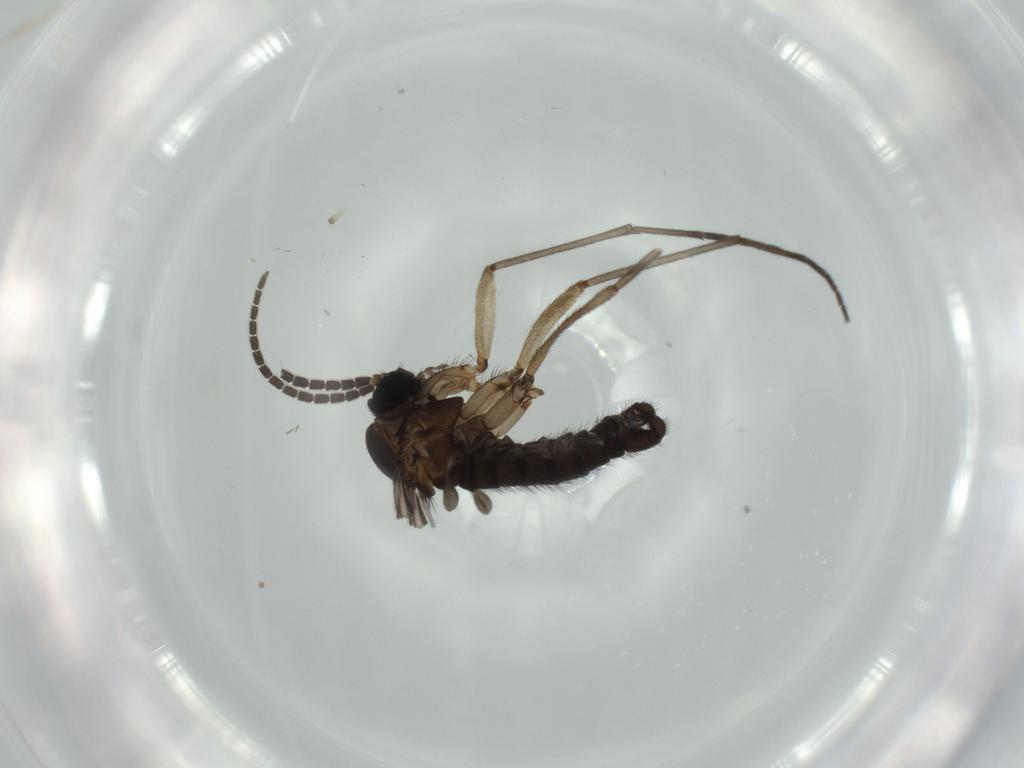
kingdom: Animalia
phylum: Arthropoda
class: Insecta
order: Diptera
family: Sciaridae
